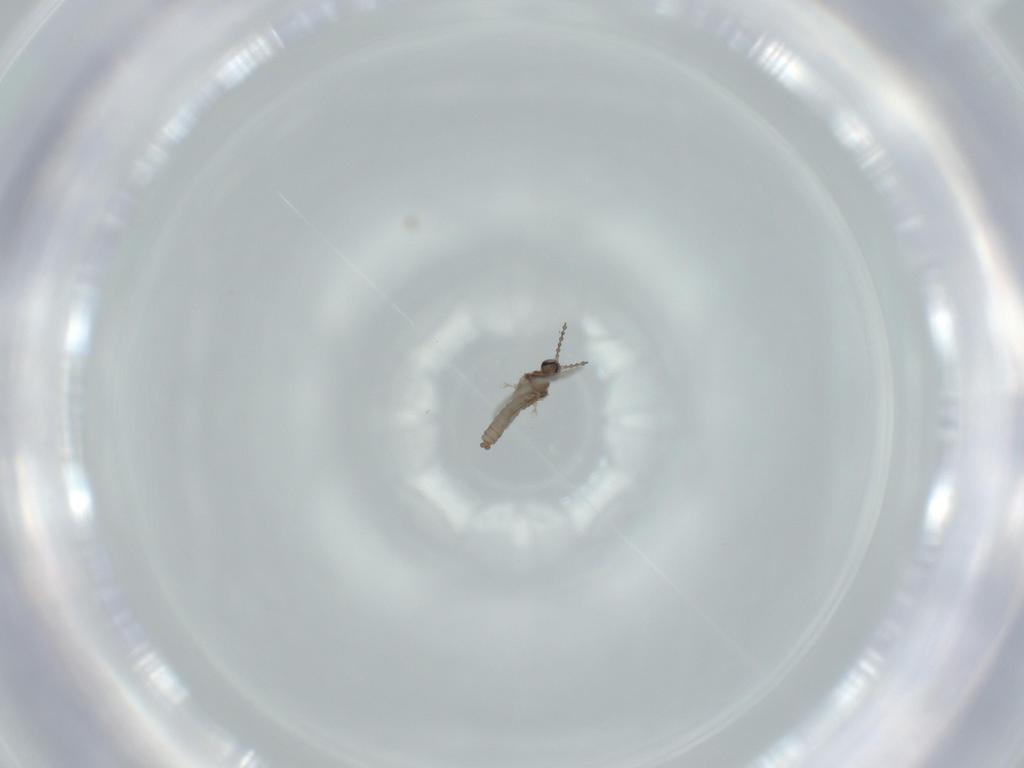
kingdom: Animalia
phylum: Arthropoda
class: Insecta
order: Diptera
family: Cecidomyiidae
